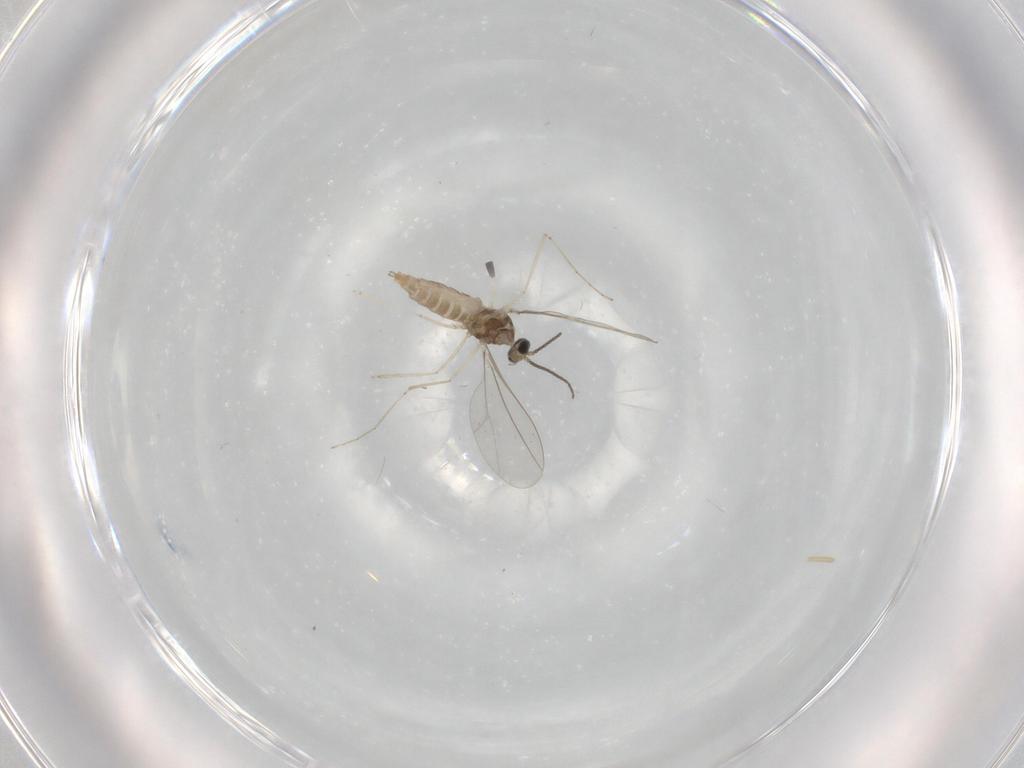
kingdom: Animalia
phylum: Arthropoda
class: Insecta
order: Diptera
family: Cecidomyiidae
